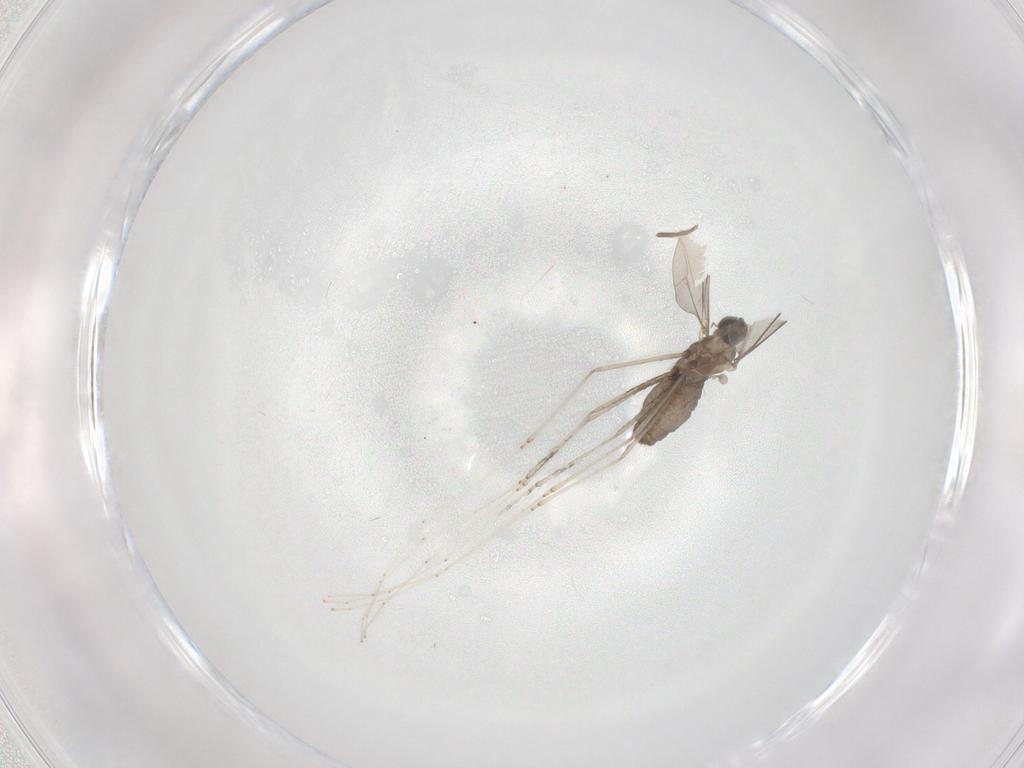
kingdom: Animalia
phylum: Arthropoda
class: Insecta
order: Diptera
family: Cecidomyiidae
